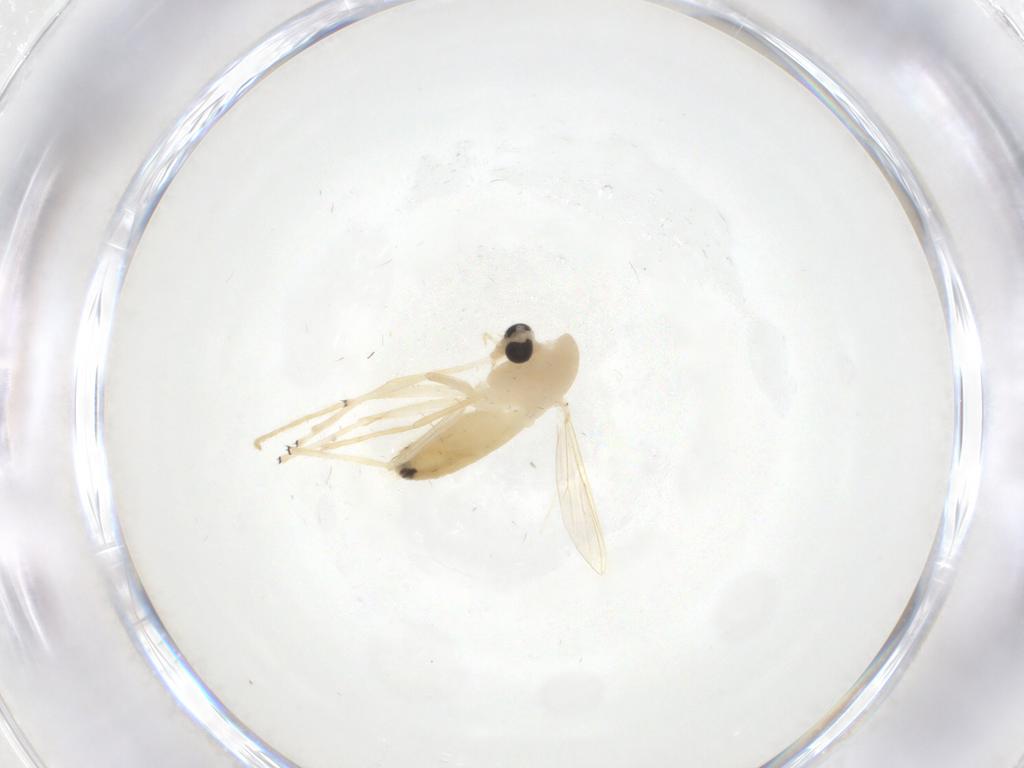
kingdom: Animalia
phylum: Arthropoda
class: Insecta
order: Diptera
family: Chironomidae
